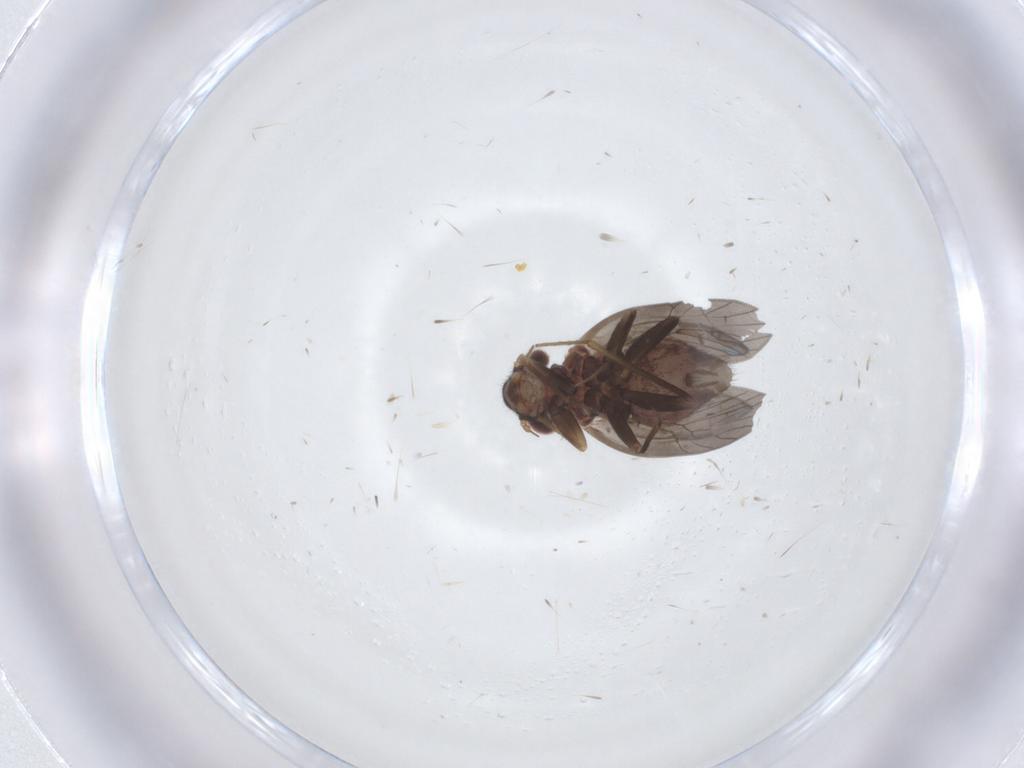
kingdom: Animalia
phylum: Arthropoda
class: Insecta
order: Psocodea
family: Lepidopsocidae
